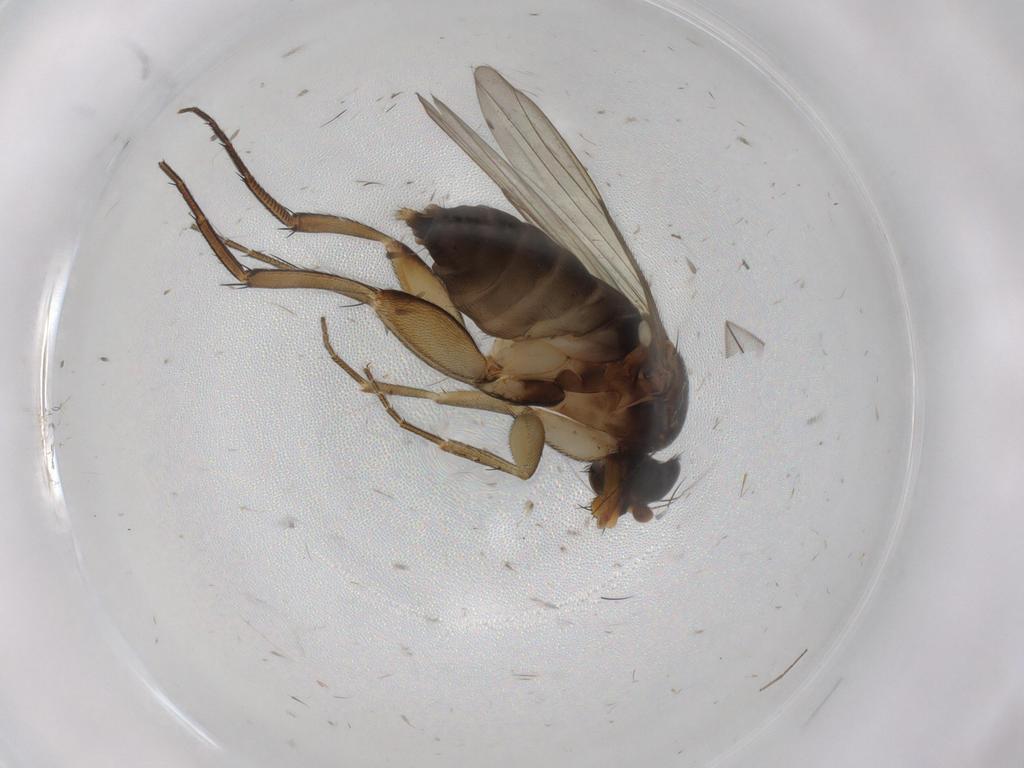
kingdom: Animalia
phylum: Arthropoda
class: Insecta
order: Diptera
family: Phoridae
